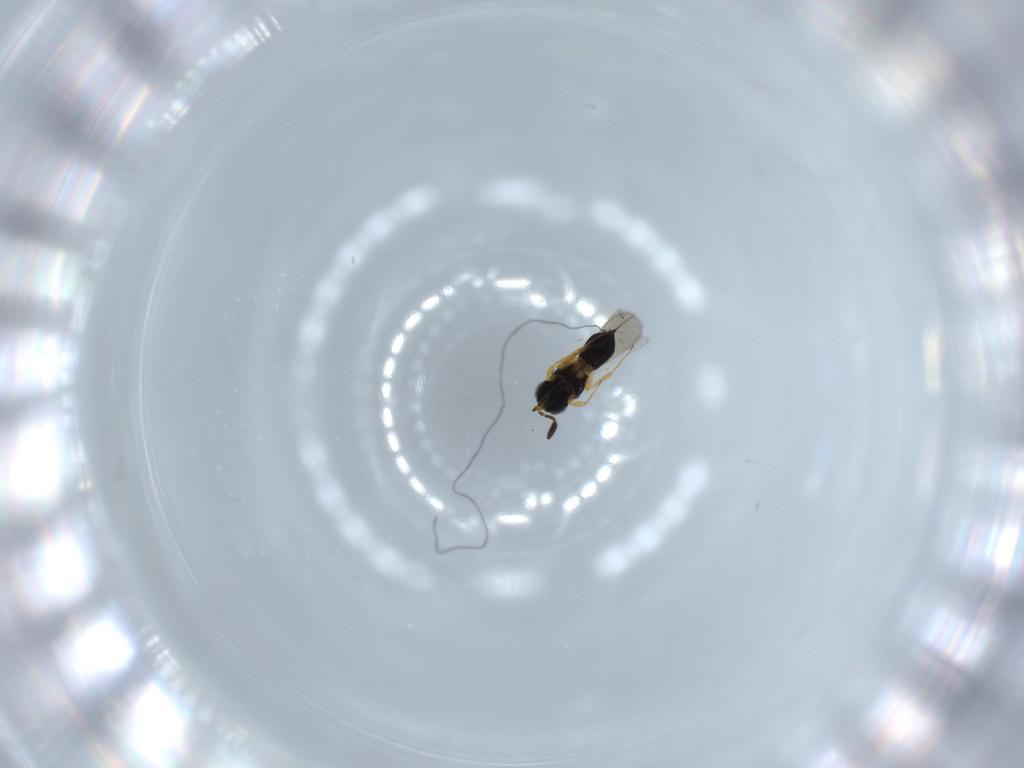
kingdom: Animalia
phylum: Arthropoda
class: Insecta
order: Hymenoptera
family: Scelionidae
